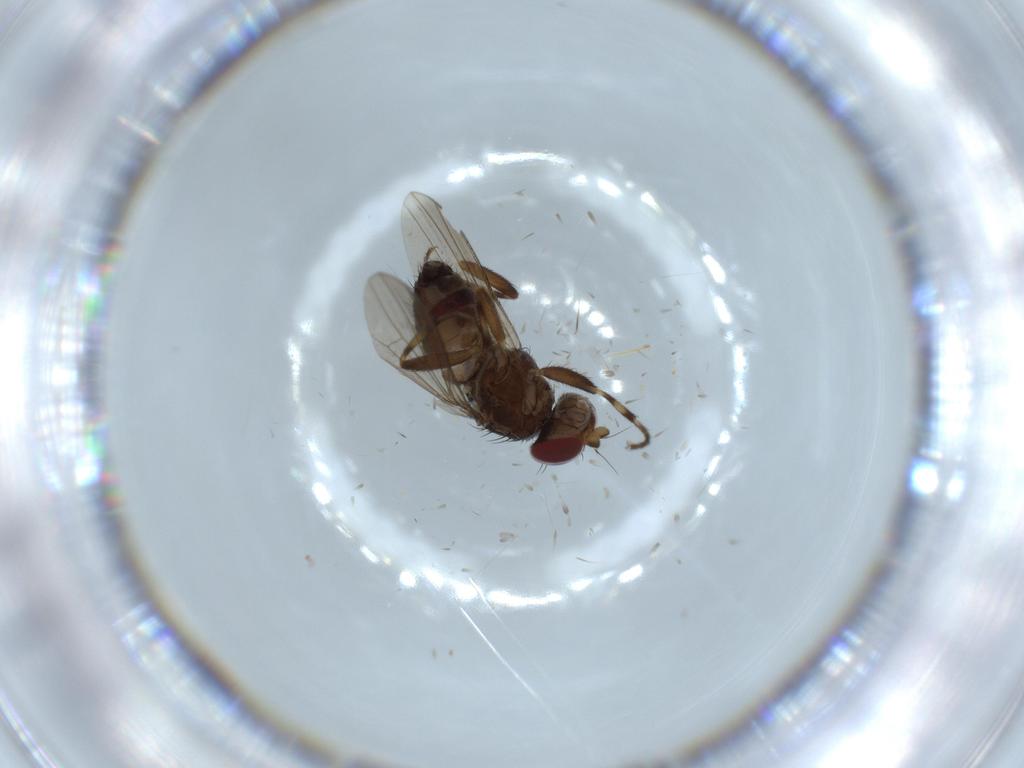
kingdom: Animalia
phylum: Arthropoda
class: Insecta
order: Diptera
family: Heleomyzidae
